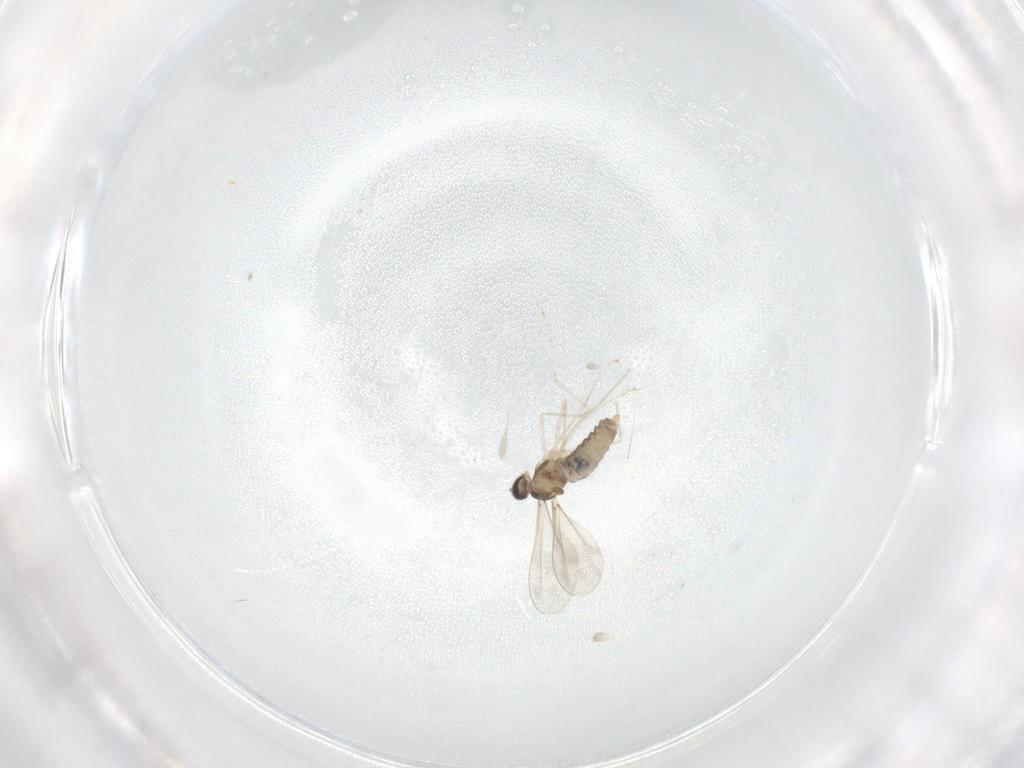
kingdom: Animalia
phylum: Arthropoda
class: Insecta
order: Diptera
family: Cecidomyiidae
